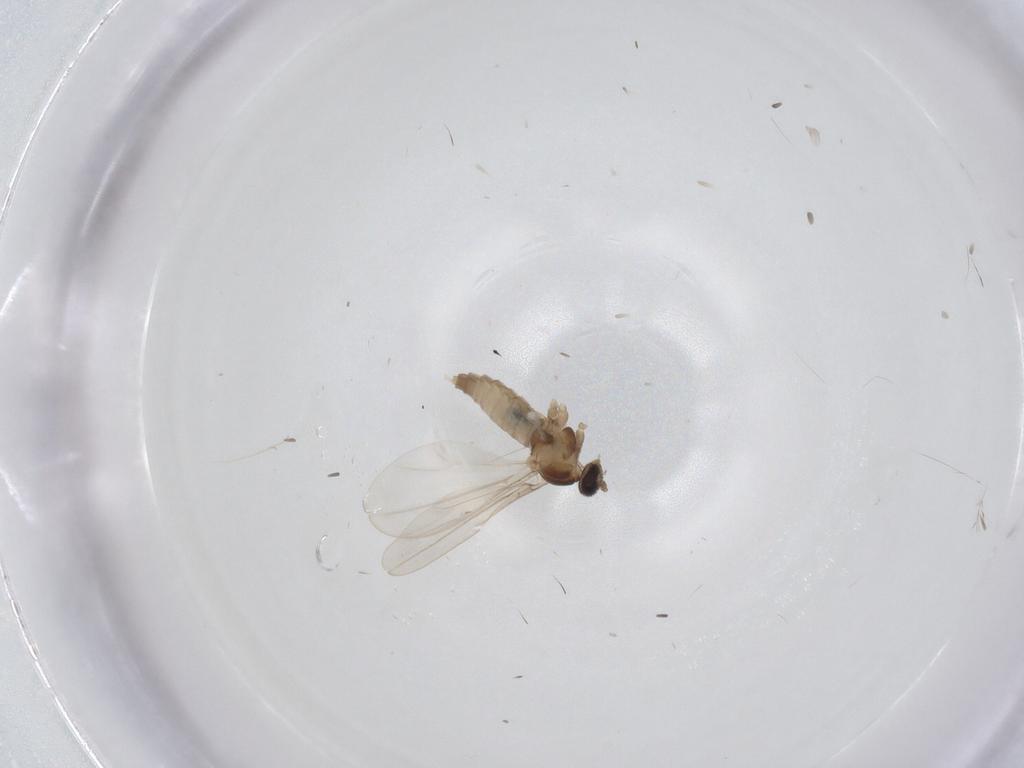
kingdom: Animalia
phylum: Arthropoda
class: Insecta
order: Diptera
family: Cecidomyiidae
